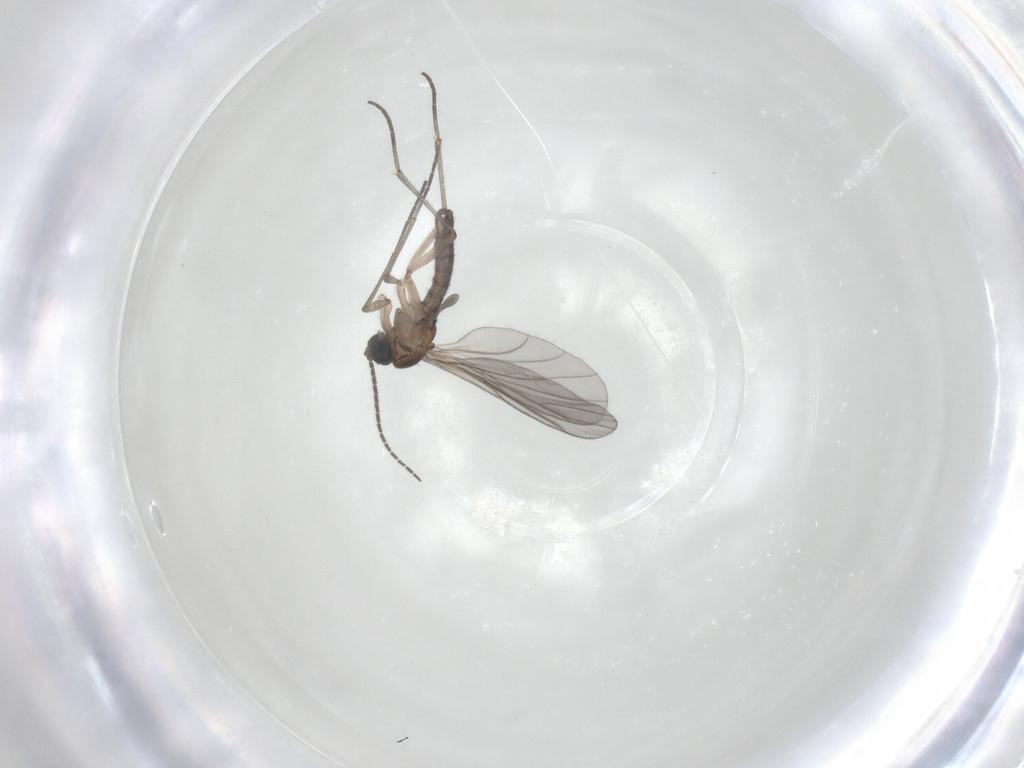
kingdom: Animalia
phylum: Arthropoda
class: Insecta
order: Diptera
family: Sciaridae
